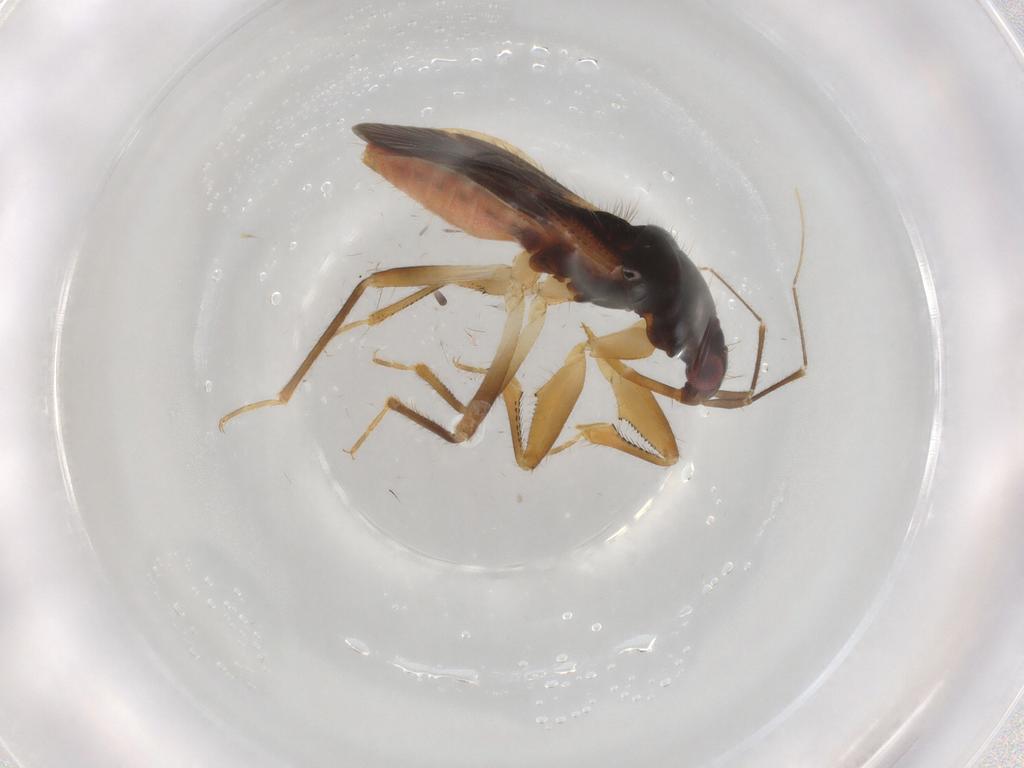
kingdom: Animalia
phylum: Arthropoda
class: Insecta
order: Hemiptera
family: Nabidae
